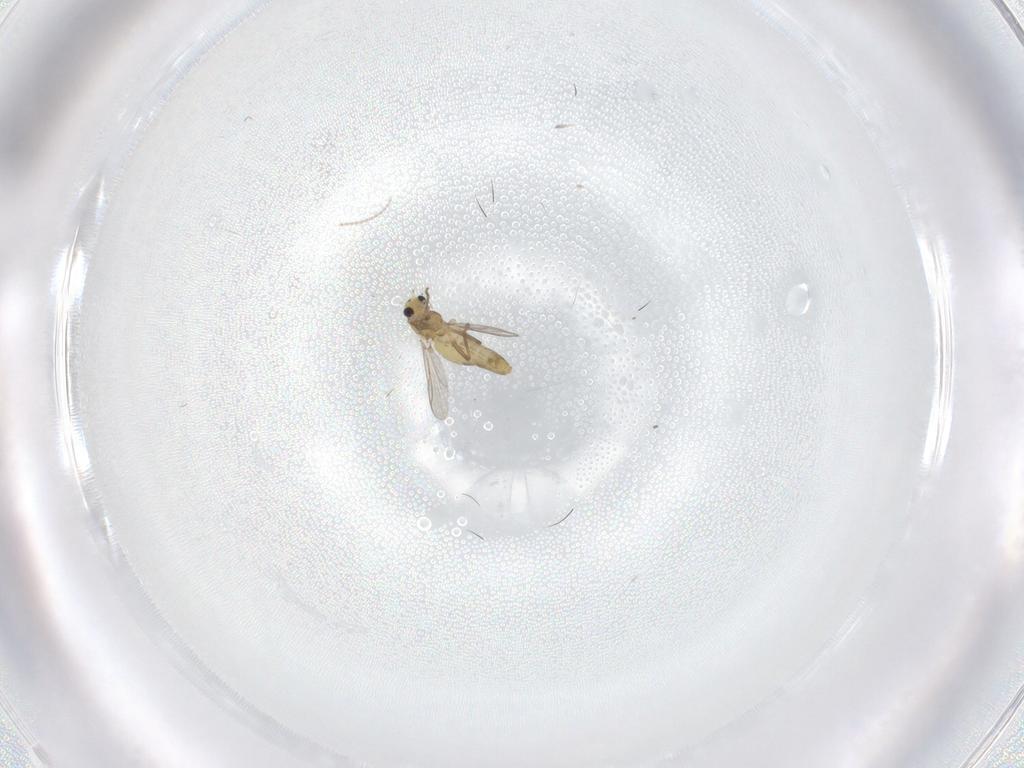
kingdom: Animalia
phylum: Arthropoda
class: Insecta
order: Diptera
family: Chironomidae
